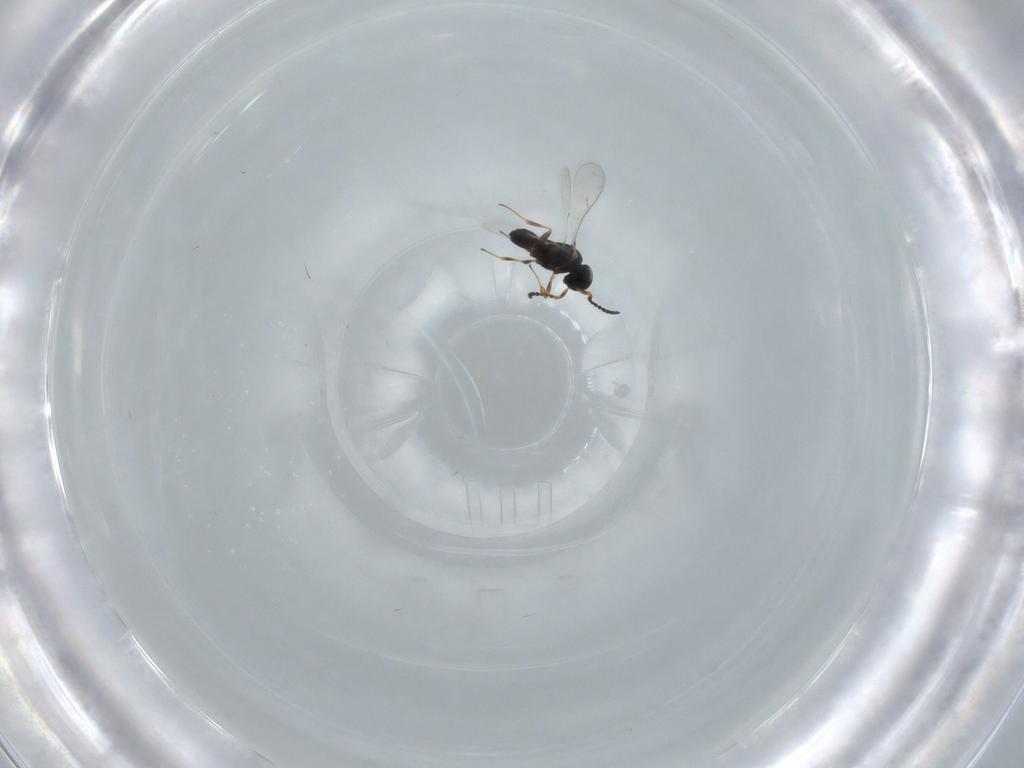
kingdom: Animalia
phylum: Arthropoda
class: Insecta
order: Hymenoptera
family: Scelionidae
